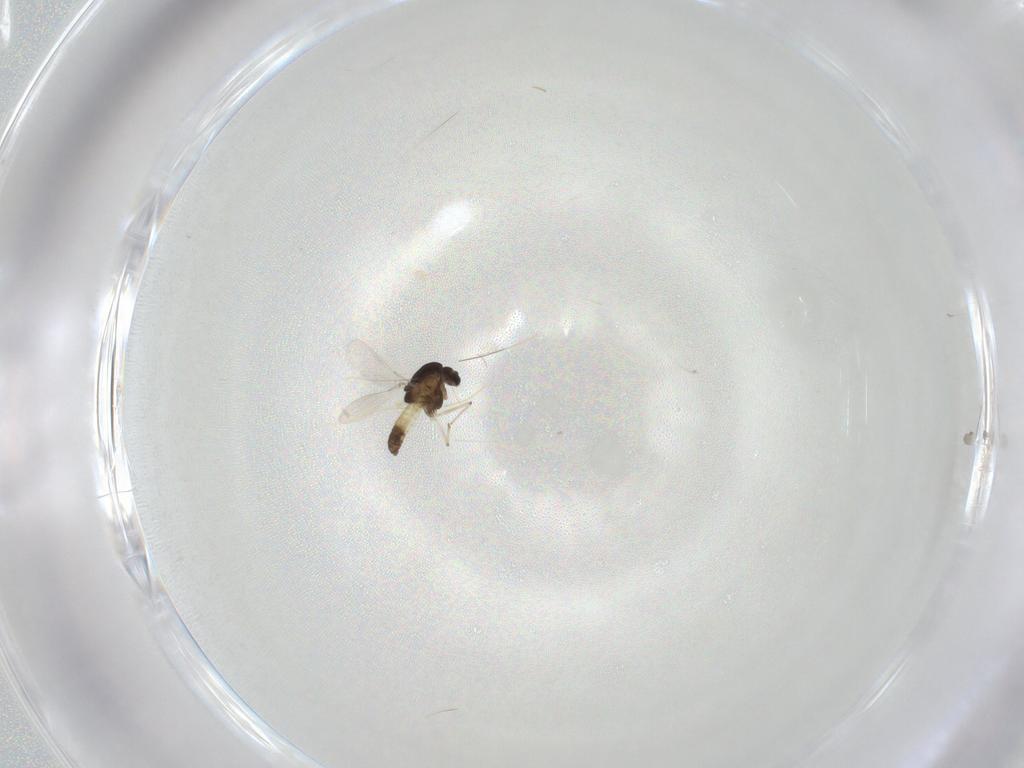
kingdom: Animalia
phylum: Arthropoda
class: Insecta
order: Diptera
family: Chironomidae
